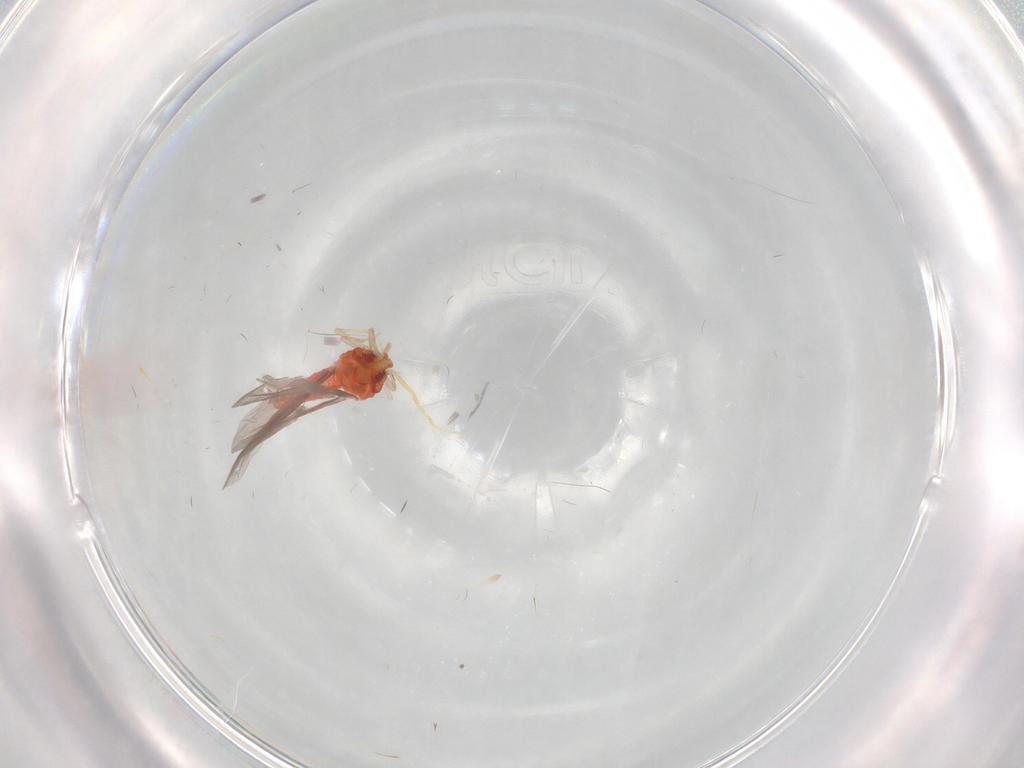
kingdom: Animalia
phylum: Arthropoda
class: Insecta
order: Hemiptera
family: Aleyrodidae
